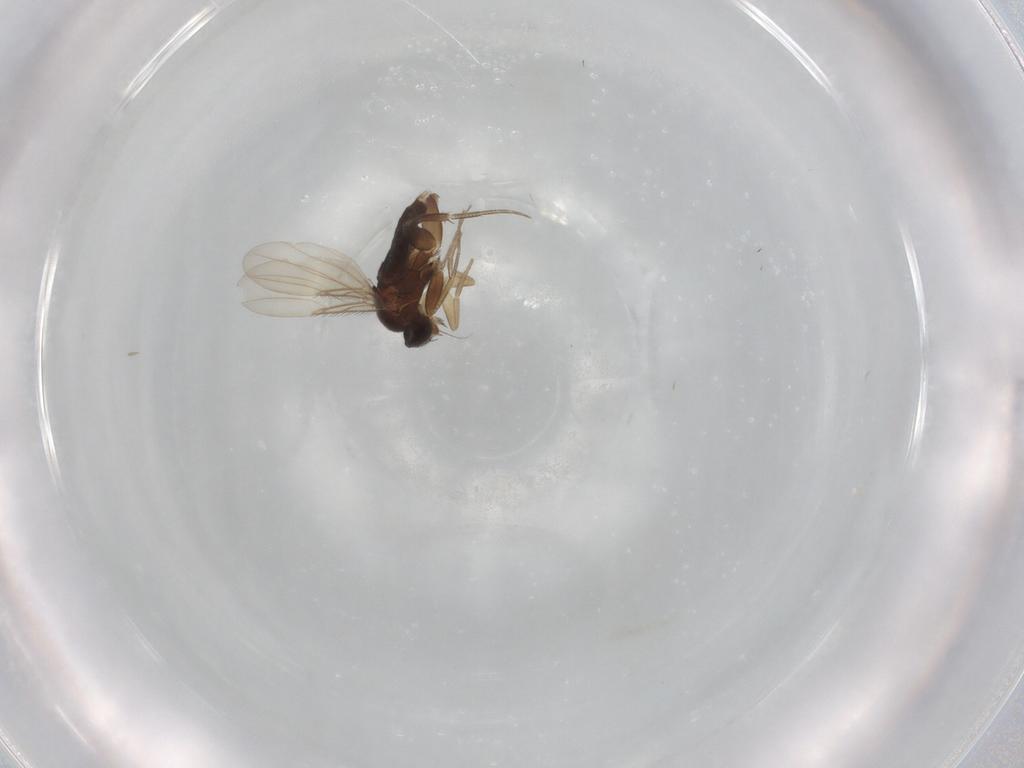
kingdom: Animalia
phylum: Arthropoda
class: Insecta
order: Diptera
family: Phoridae
